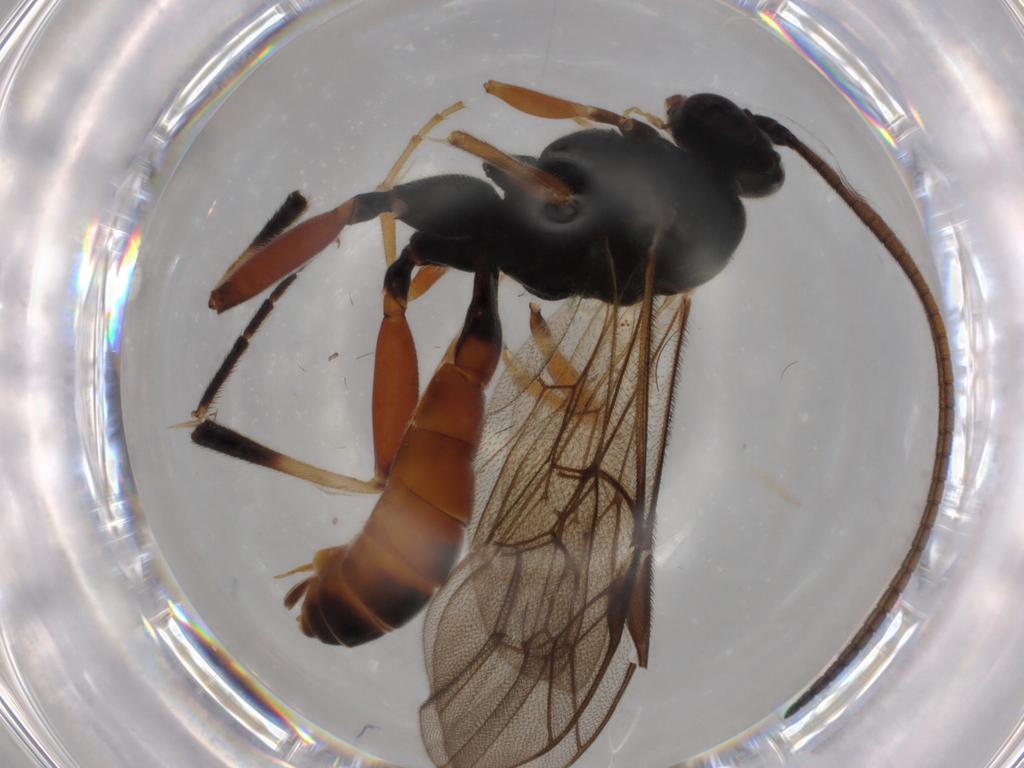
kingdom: Animalia
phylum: Arthropoda
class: Insecta
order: Hymenoptera
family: Ichneumonidae
